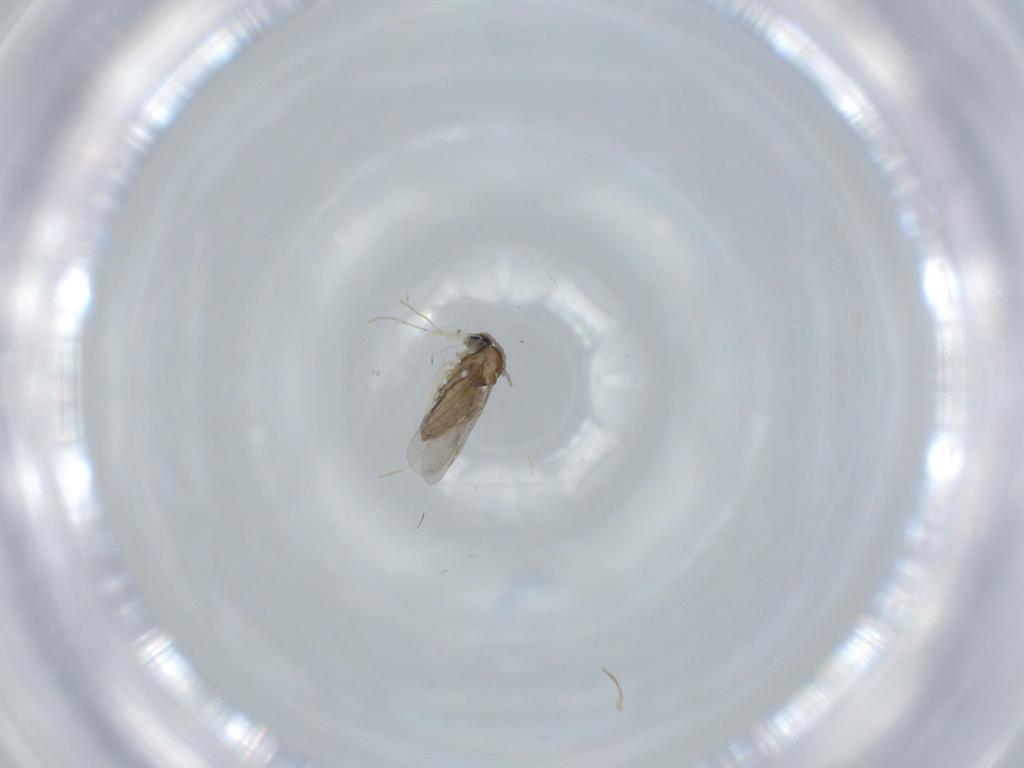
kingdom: Animalia
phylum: Arthropoda
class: Insecta
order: Diptera
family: Cecidomyiidae
